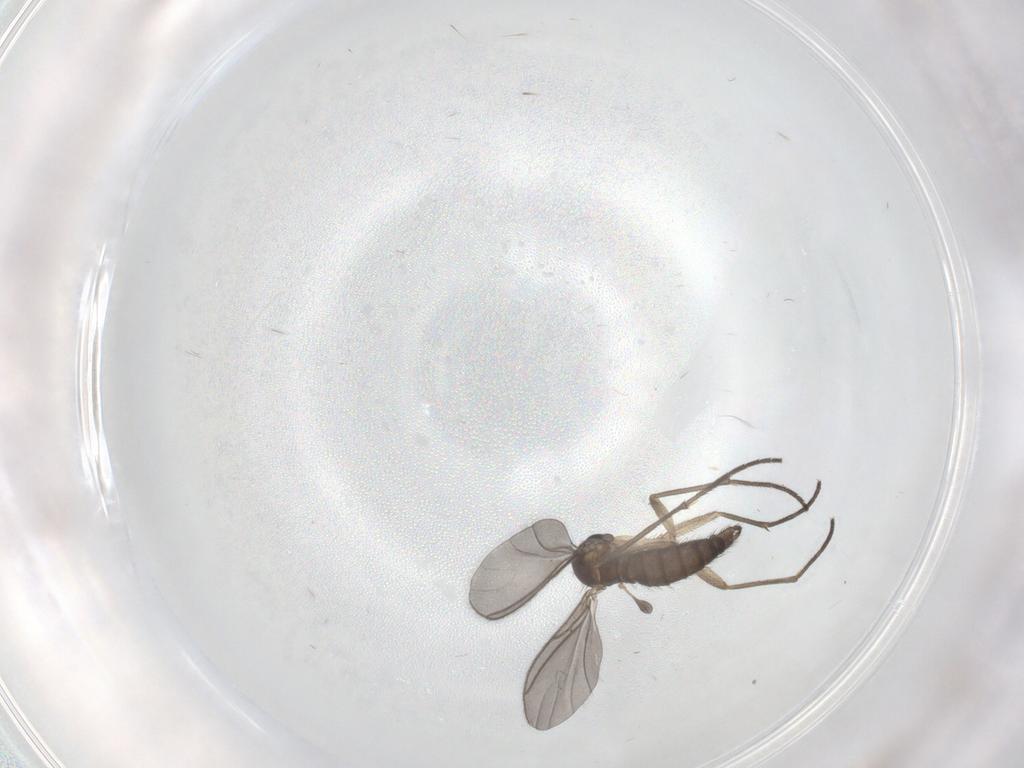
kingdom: Animalia
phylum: Arthropoda
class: Insecta
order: Diptera
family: Sciaridae
